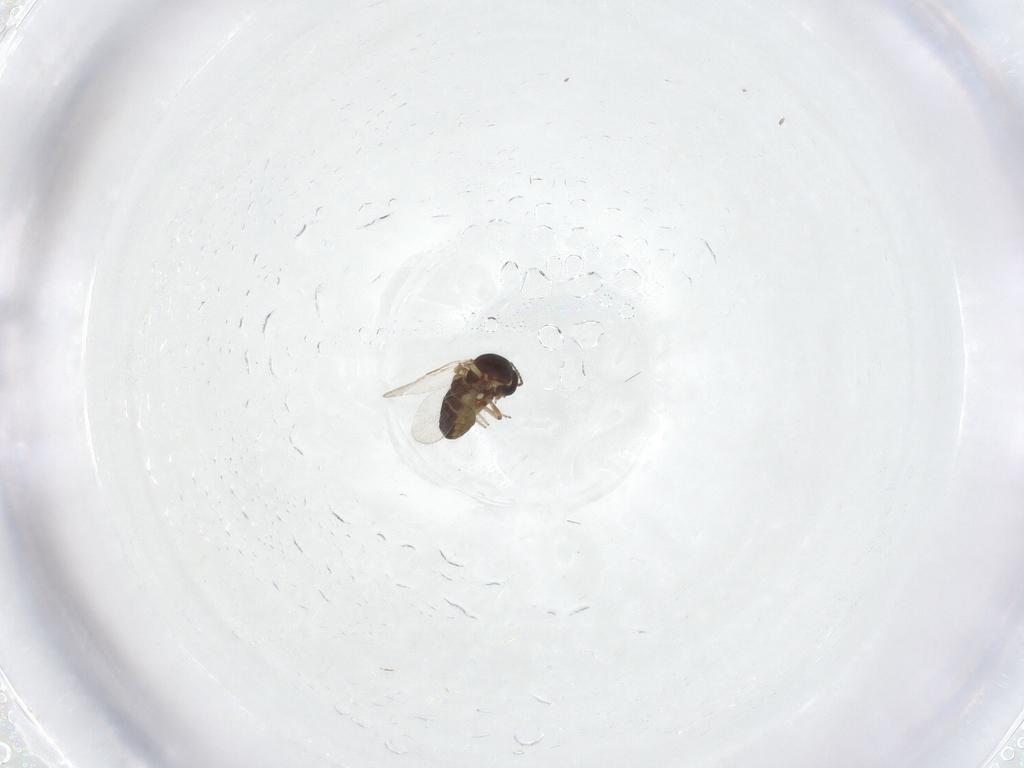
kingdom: Animalia
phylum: Arthropoda
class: Insecta
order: Diptera
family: Ceratopogonidae
